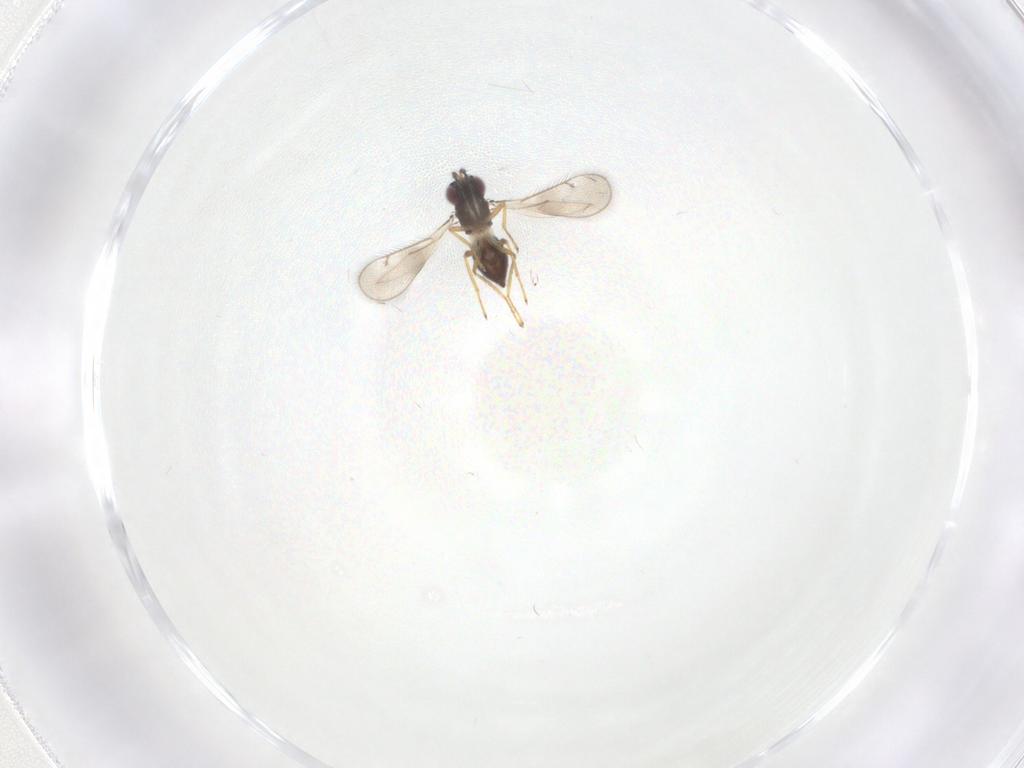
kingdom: Animalia
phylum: Arthropoda
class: Insecta
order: Hymenoptera
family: Eulophidae
